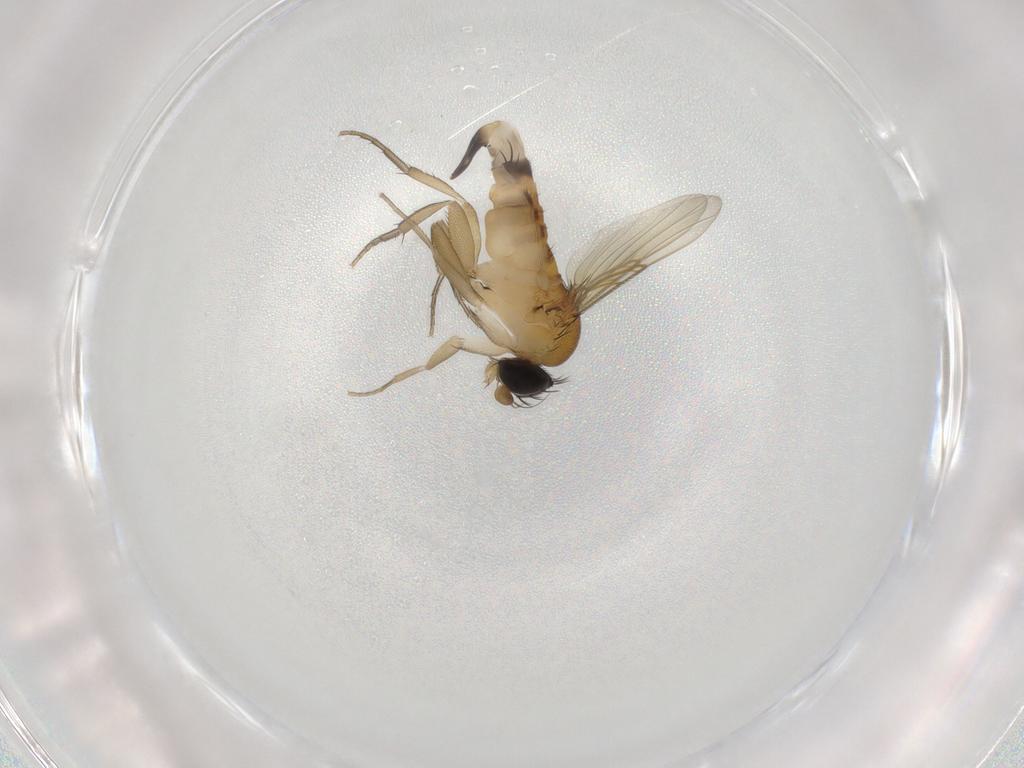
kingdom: Animalia
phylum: Arthropoda
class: Insecta
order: Diptera
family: Phoridae
